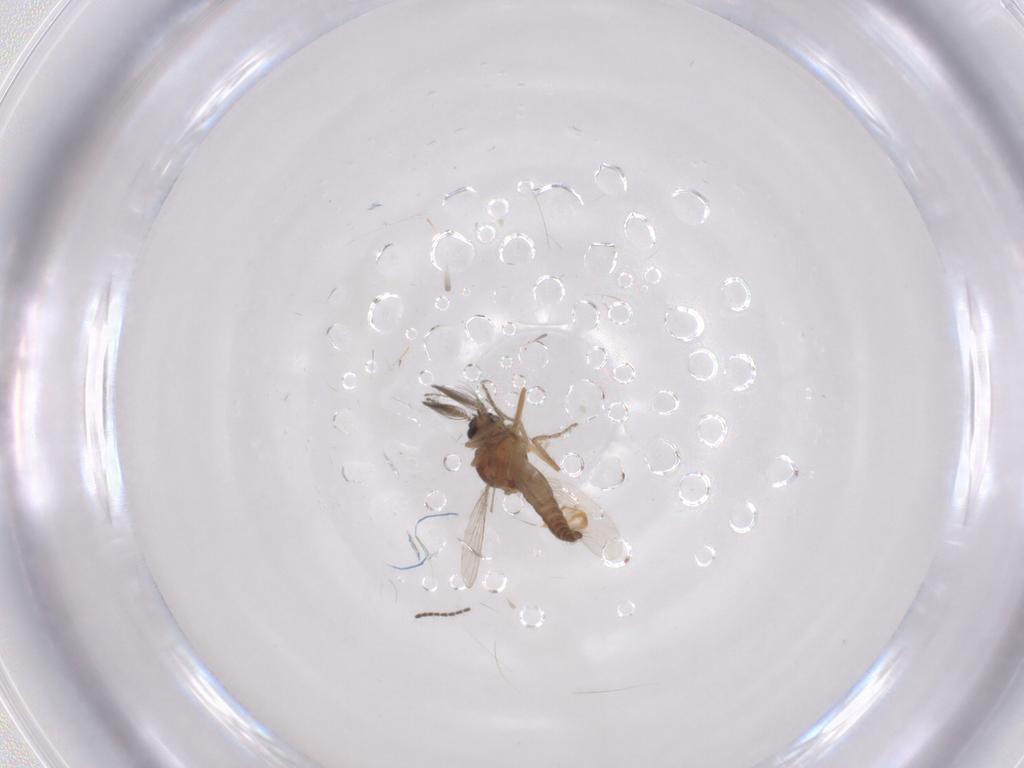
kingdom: Animalia
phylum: Arthropoda
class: Insecta
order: Diptera
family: Ceratopogonidae
